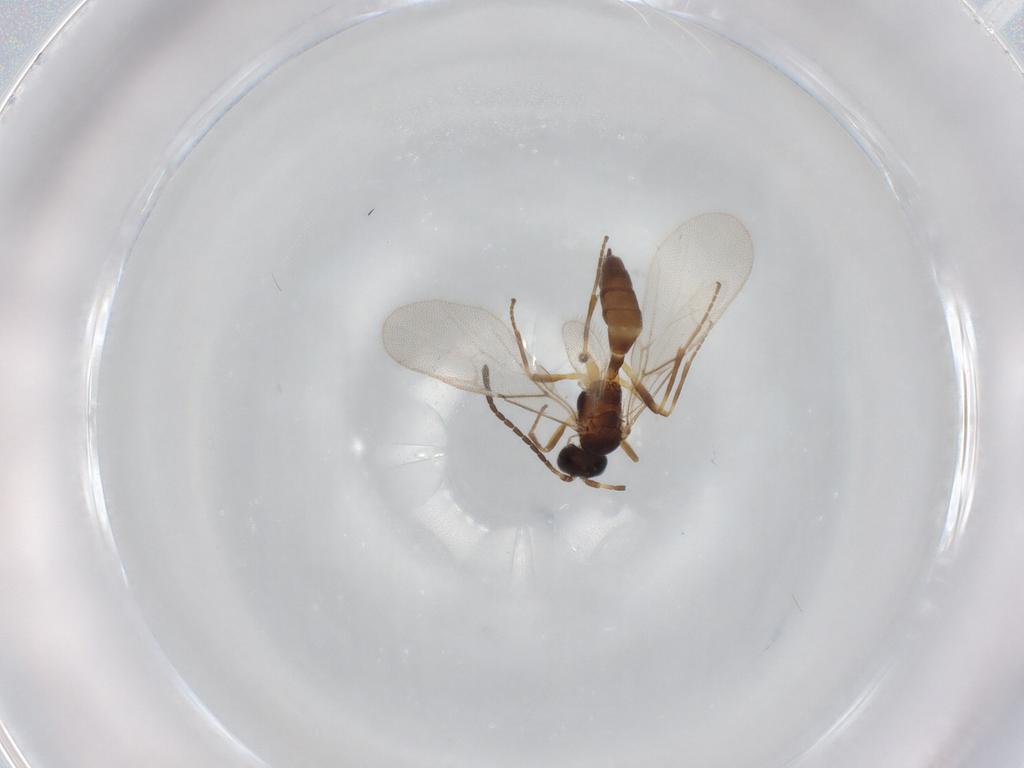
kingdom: Animalia
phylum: Arthropoda
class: Insecta
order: Hymenoptera
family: Braconidae
